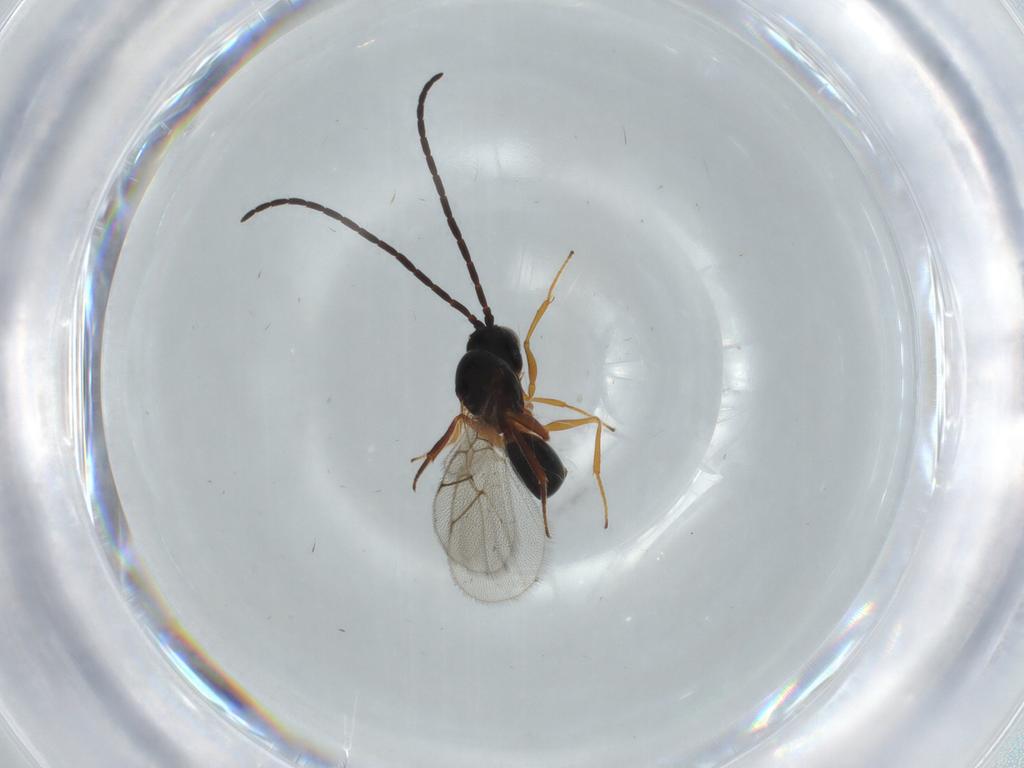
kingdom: Animalia
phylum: Arthropoda
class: Insecta
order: Hymenoptera
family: Figitidae
